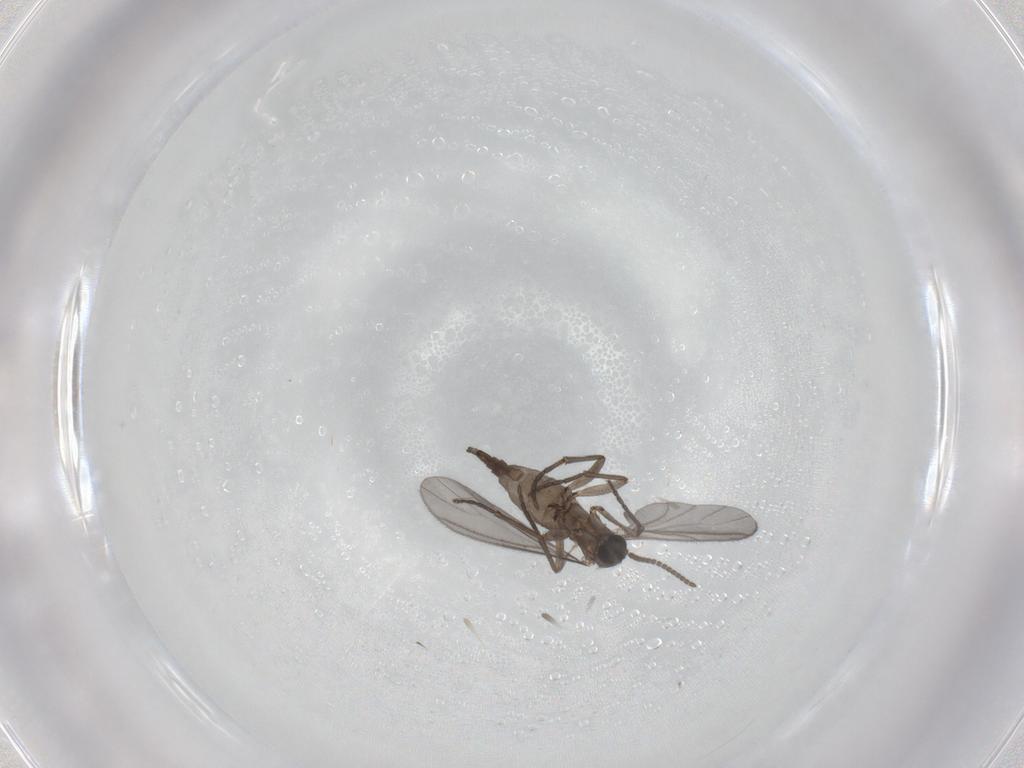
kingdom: Animalia
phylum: Arthropoda
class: Insecta
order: Diptera
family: Sciaridae
